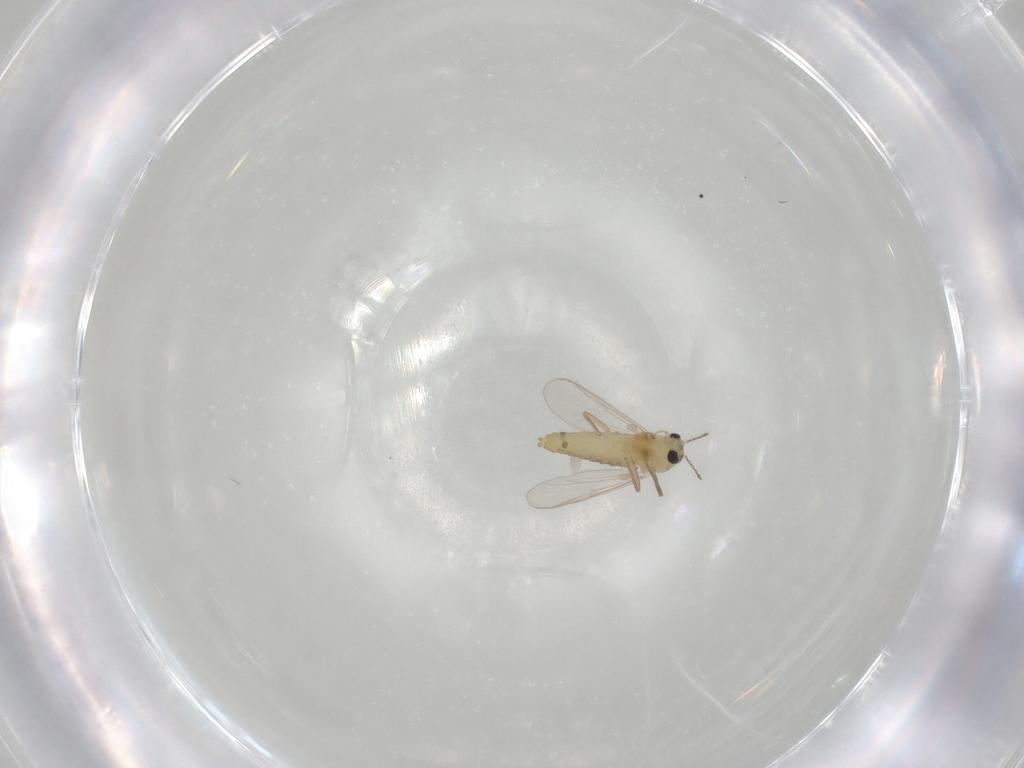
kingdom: Animalia
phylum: Arthropoda
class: Insecta
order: Diptera
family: Chironomidae
